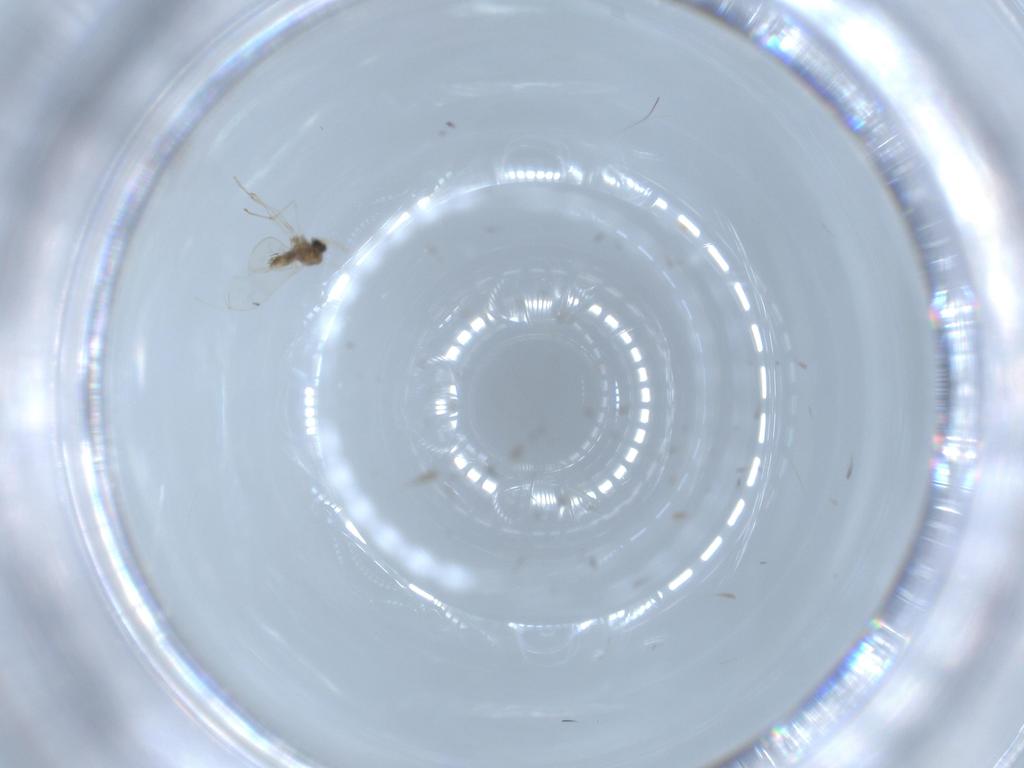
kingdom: Animalia
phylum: Arthropoda
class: Insecta
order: Diptera
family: Dolichopodidae
